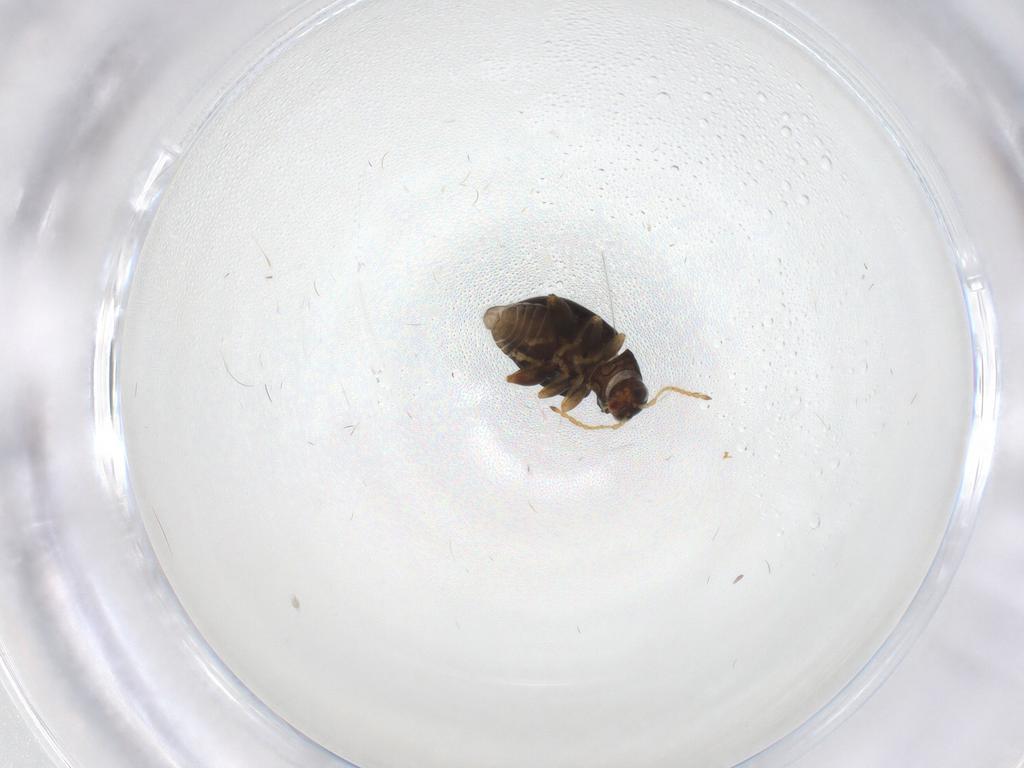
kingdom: Animalia
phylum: Arthropoda
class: Insecta
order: Coleoptera
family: Chrysomelidae
